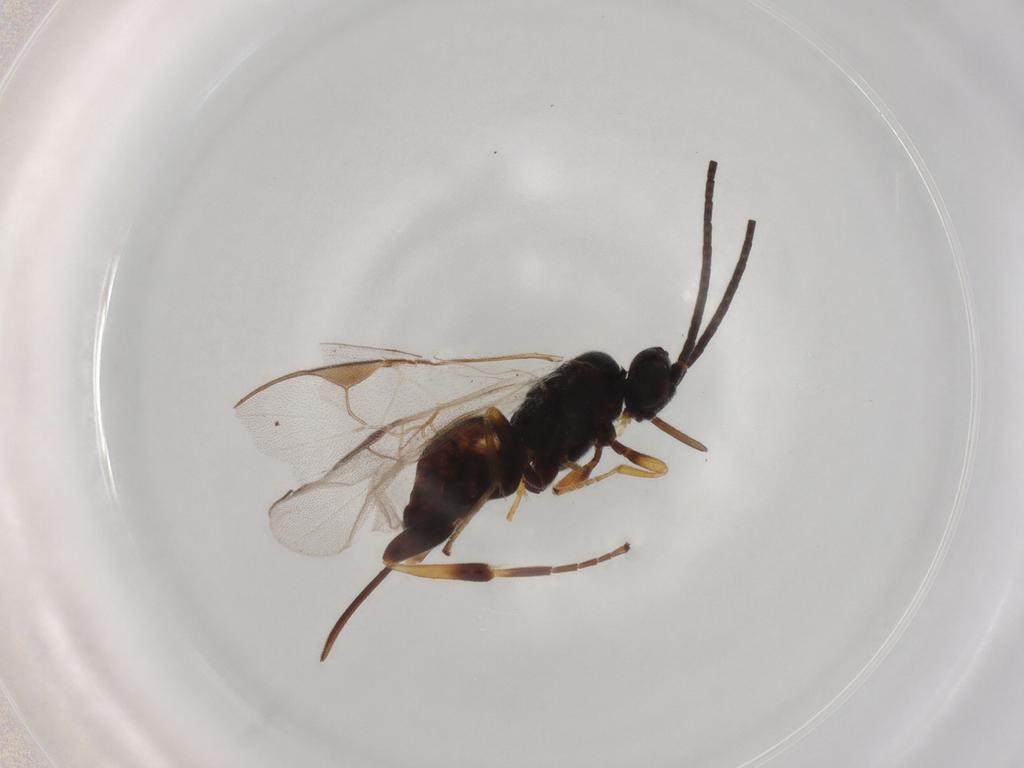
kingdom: Animalia
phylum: Arthropoda
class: Insecta
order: Hymenoptera
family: Braconidae
